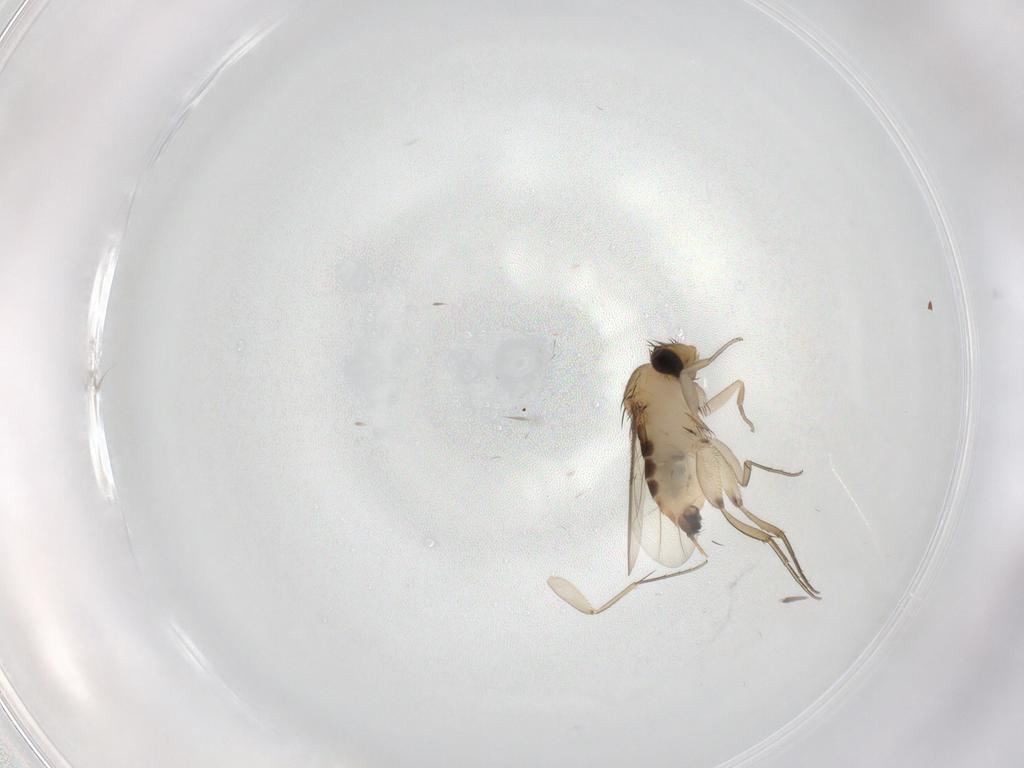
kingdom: Animalia
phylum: Arthropoda
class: Insecta
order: Diptera
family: Phoridae
